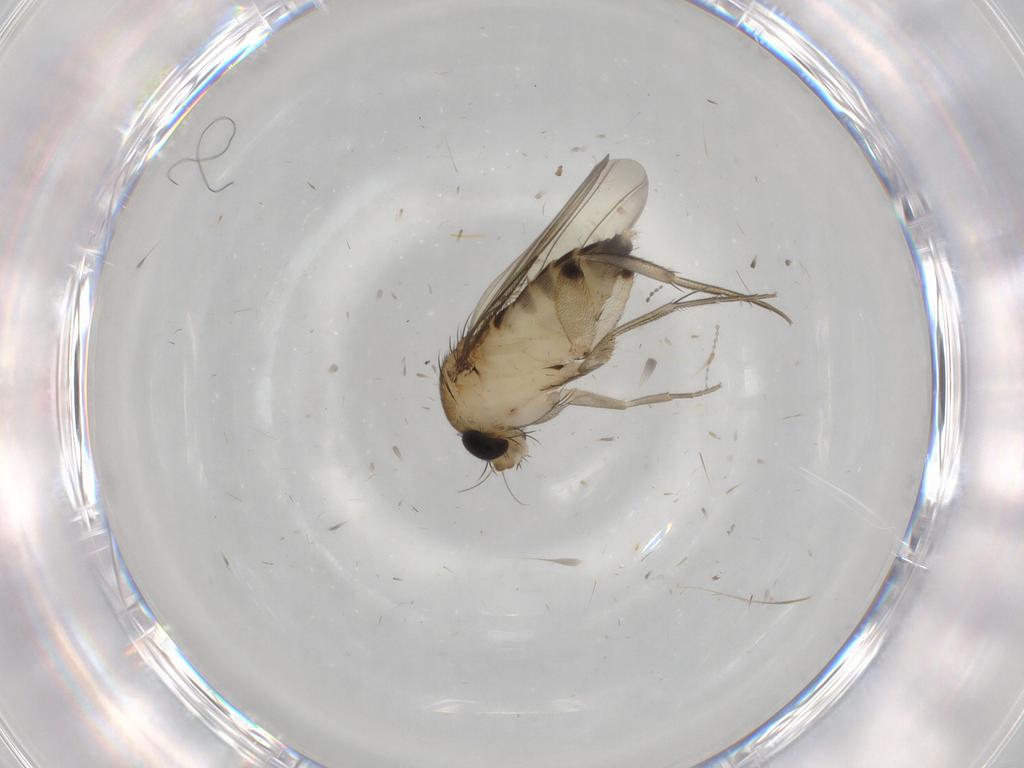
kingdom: Animalia
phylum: Arthropoda
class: Insecta
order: Diptera
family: Phoridae
